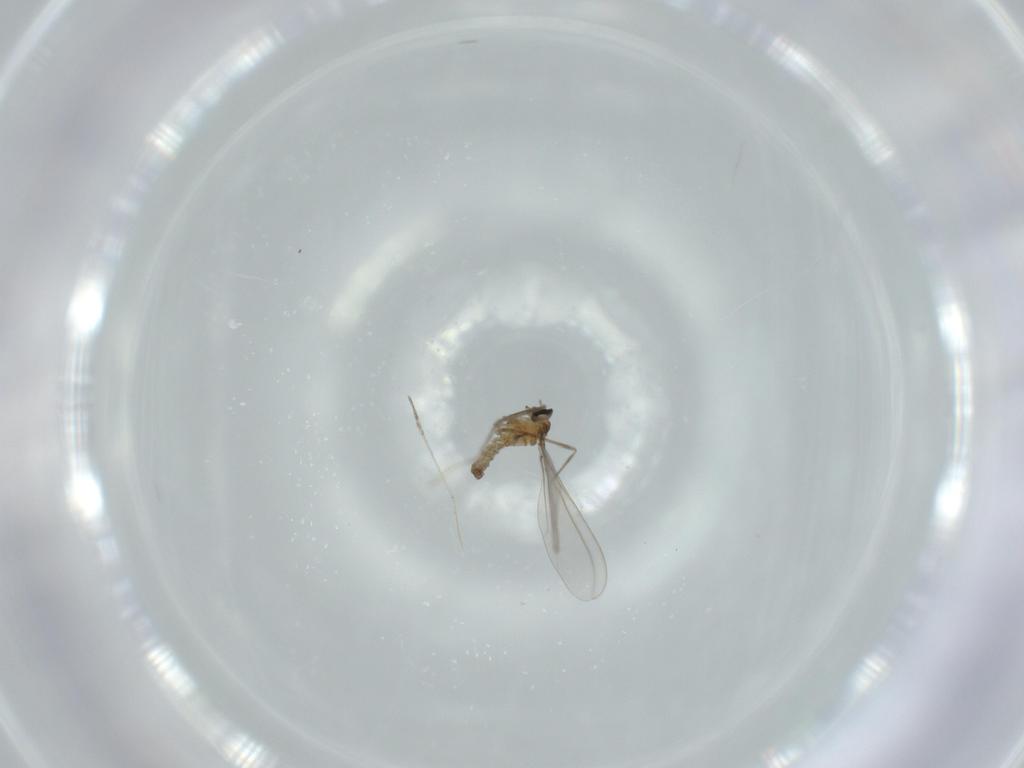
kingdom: Animalia
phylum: Arthropoda
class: Insecta
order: Diptera
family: Cecidomyiidae
